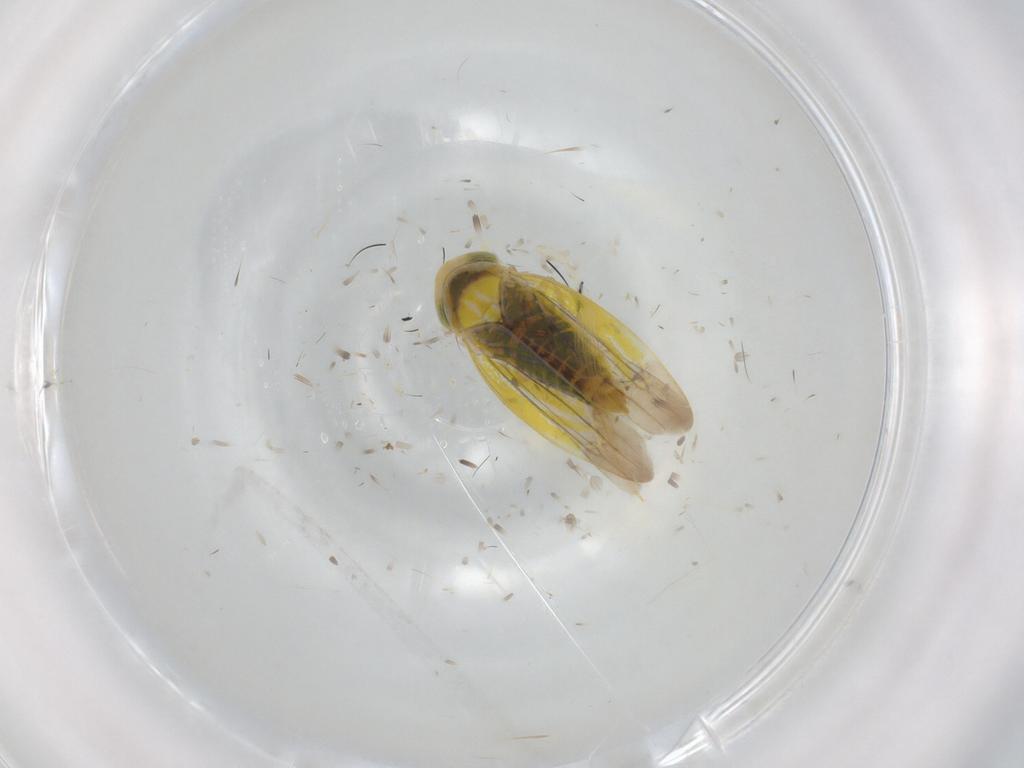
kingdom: Animalia
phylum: Arthropoda
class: Insecta
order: Hemiptera
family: Cicadellidae
